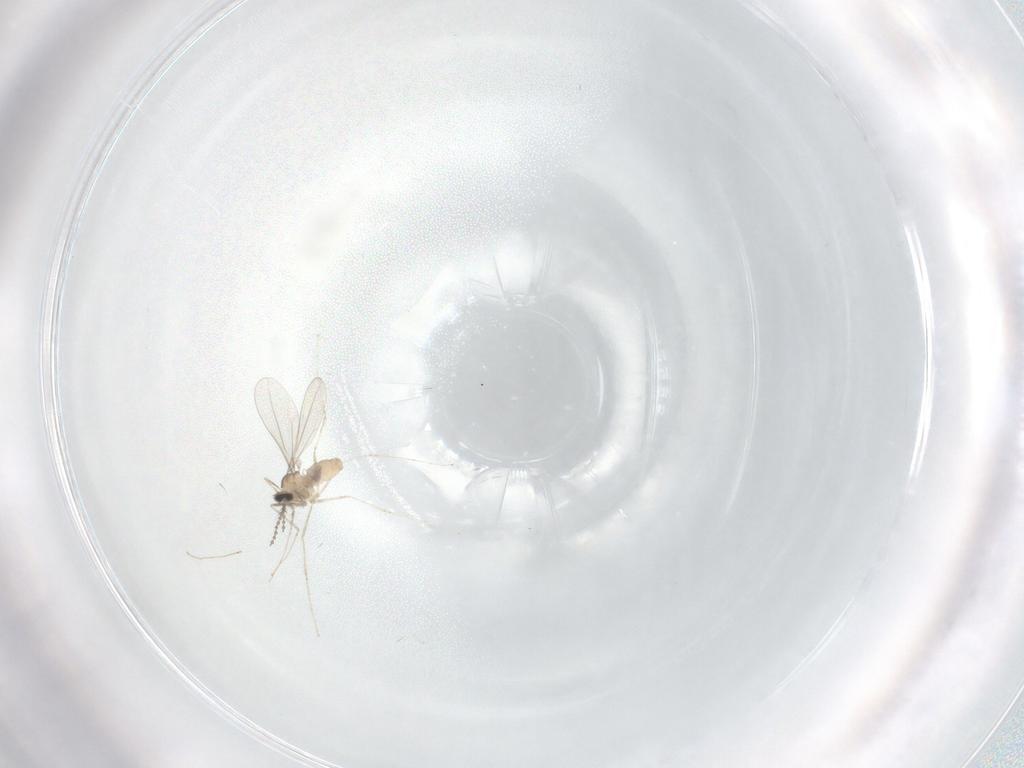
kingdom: Animalia
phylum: Arthropoda
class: Insecta
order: Diptera
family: Cecidomyiidae
